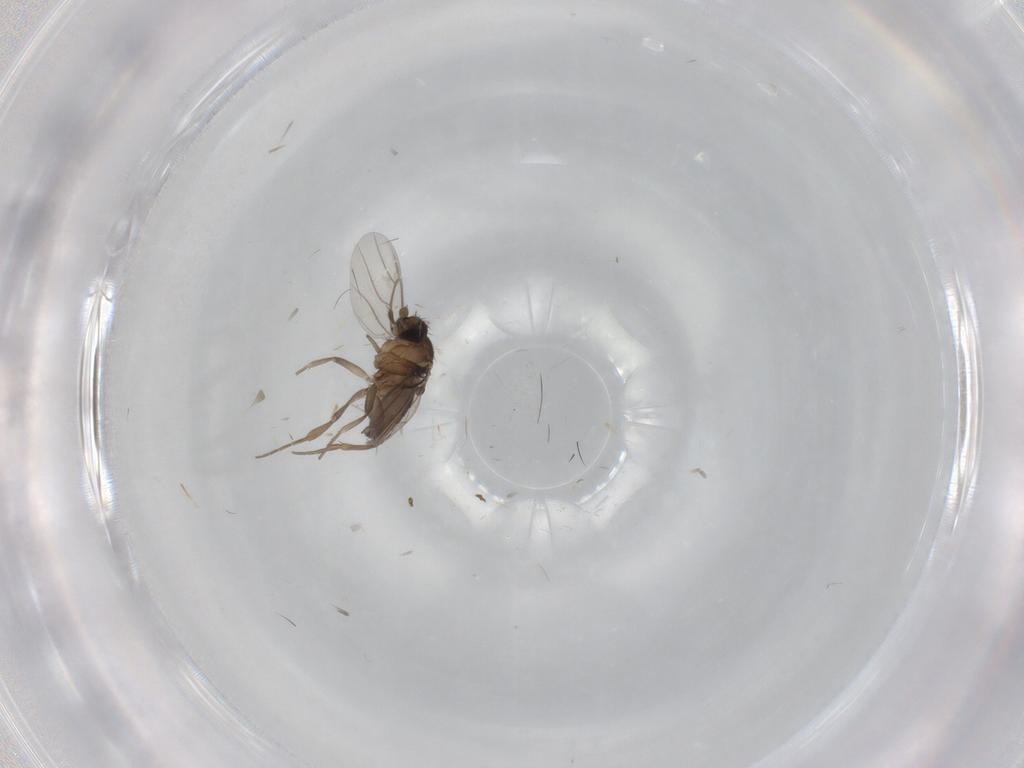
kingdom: Animalia
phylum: Arthropoda
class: Insecta
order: Diptera
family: Phoridae
